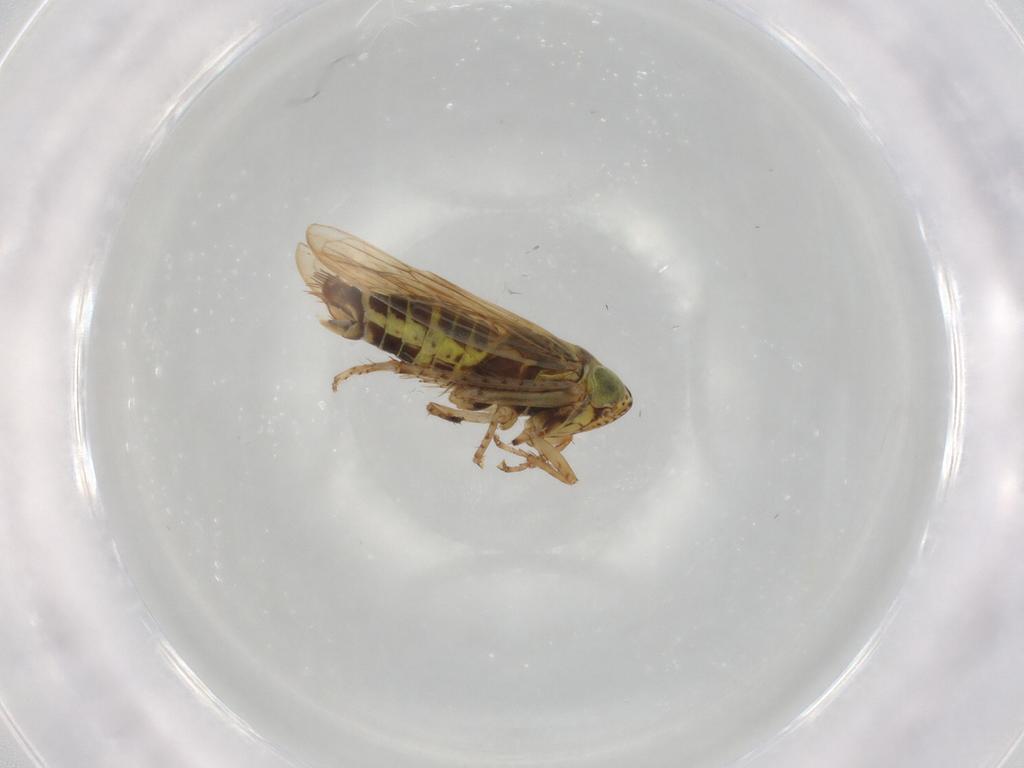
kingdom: Animalia
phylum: Arthropoda
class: Insecta
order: Hemiptera
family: Cicadellidae
